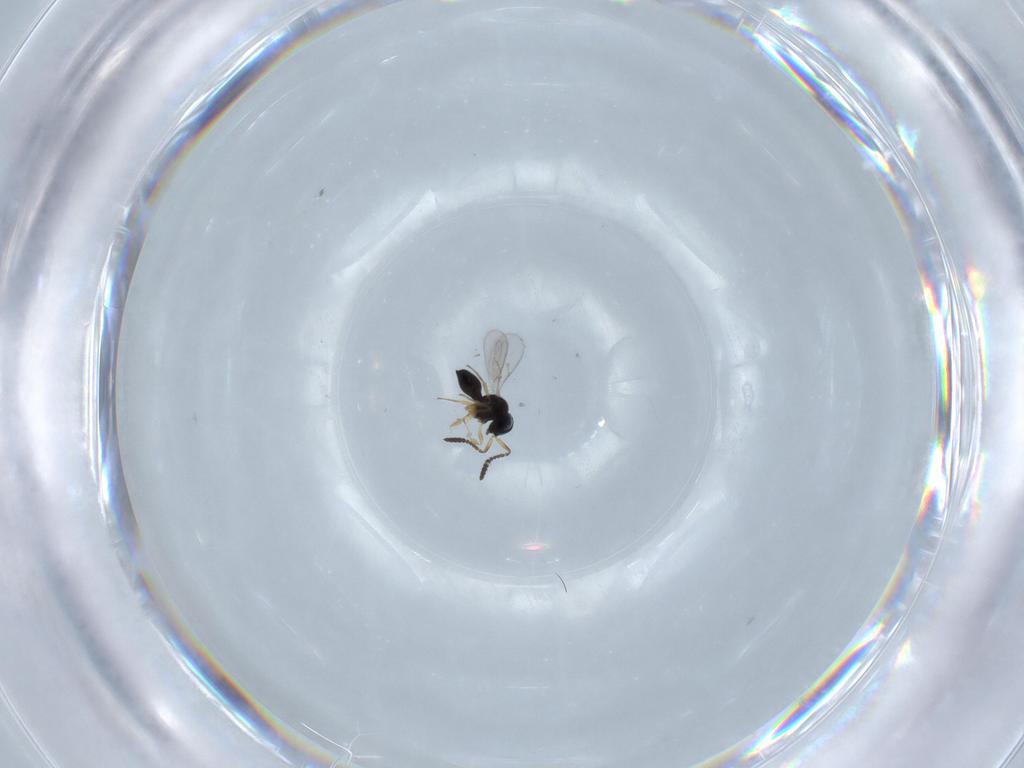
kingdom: Animalia
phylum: Arthropoda
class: Insecta
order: Hymenoptera
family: Scelionidae
